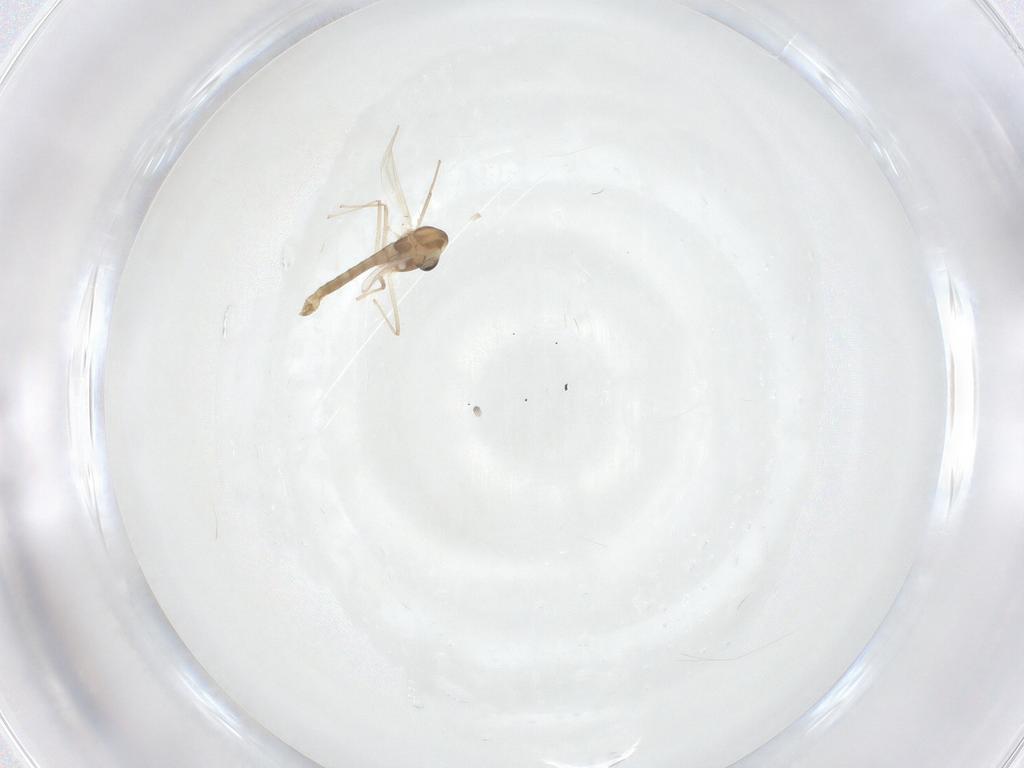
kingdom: Animalia
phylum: Arthropoda
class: Insecta
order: Diptera
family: Chironomidae
